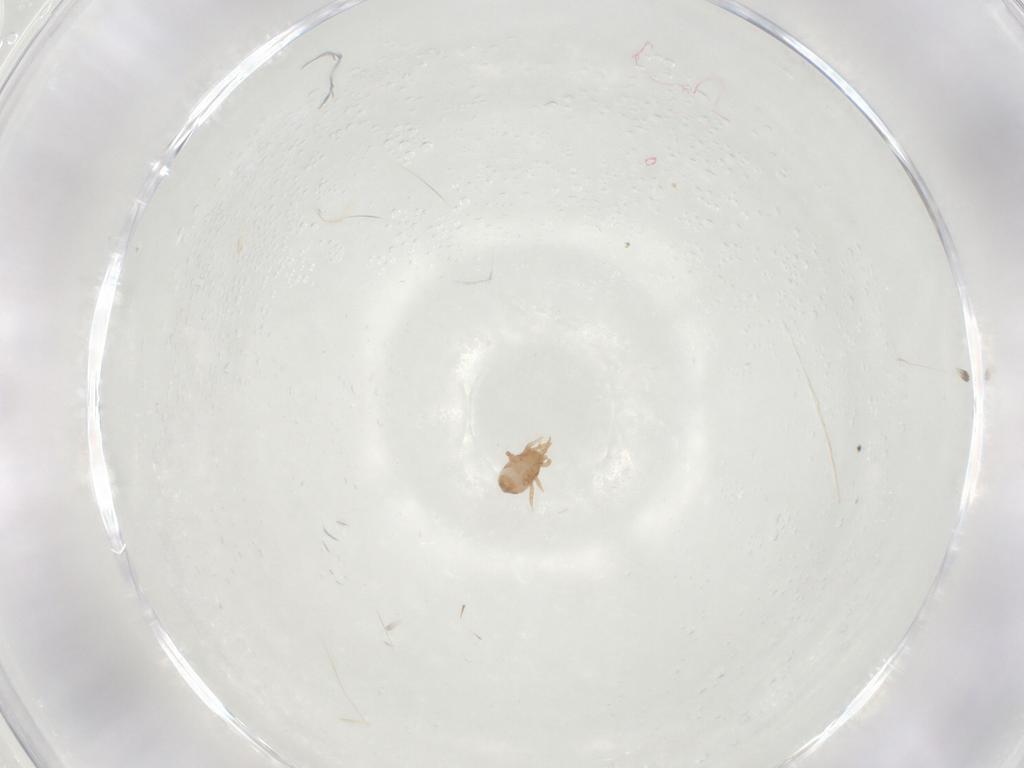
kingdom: Animalia
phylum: Arthropoda
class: Arachnida
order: Mesostigmata
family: Blattisociidae
